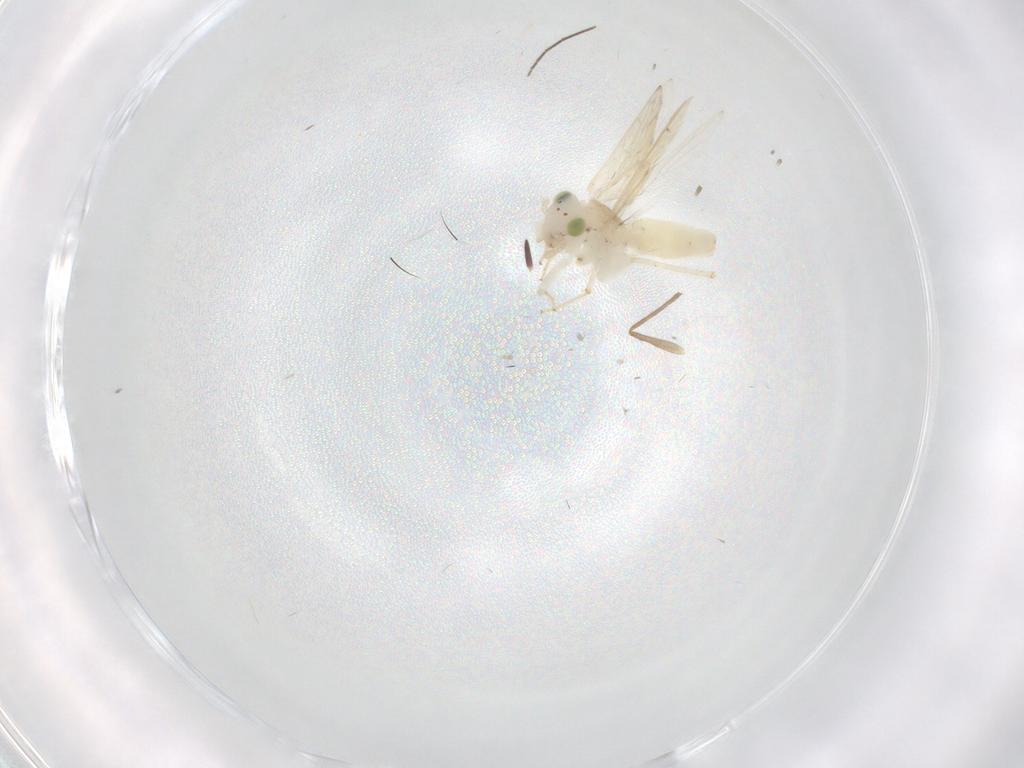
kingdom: Animalia
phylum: Arthropoda
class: Insecta
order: Psocodea
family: Lepidopsocidae
